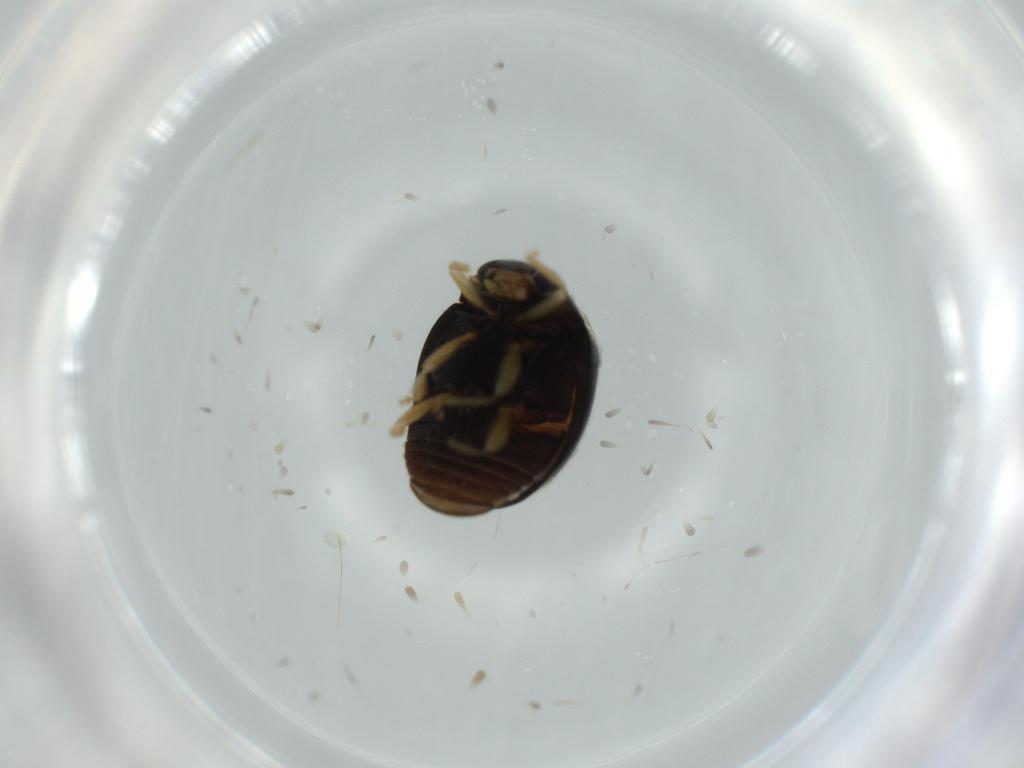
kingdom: Animalia
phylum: Arthropoda
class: Insecta
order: Coleoptera
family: Coccinellidae
